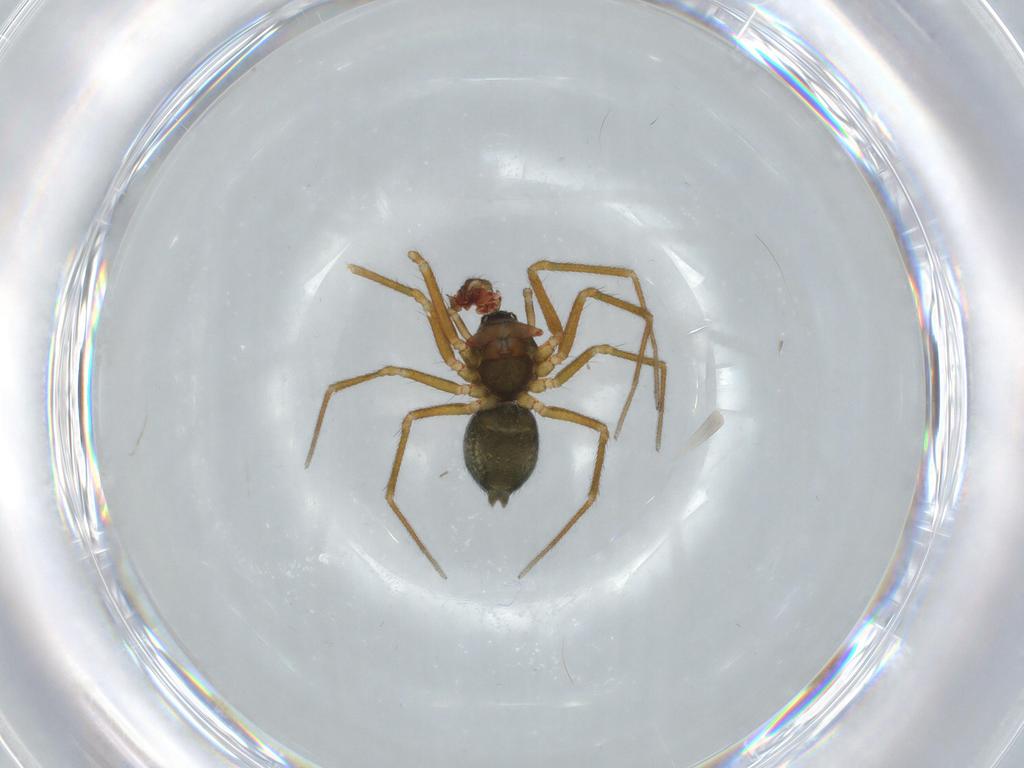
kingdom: Animalia
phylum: Arthropoda
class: Arachnida
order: Araneae
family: Linyphiidae
